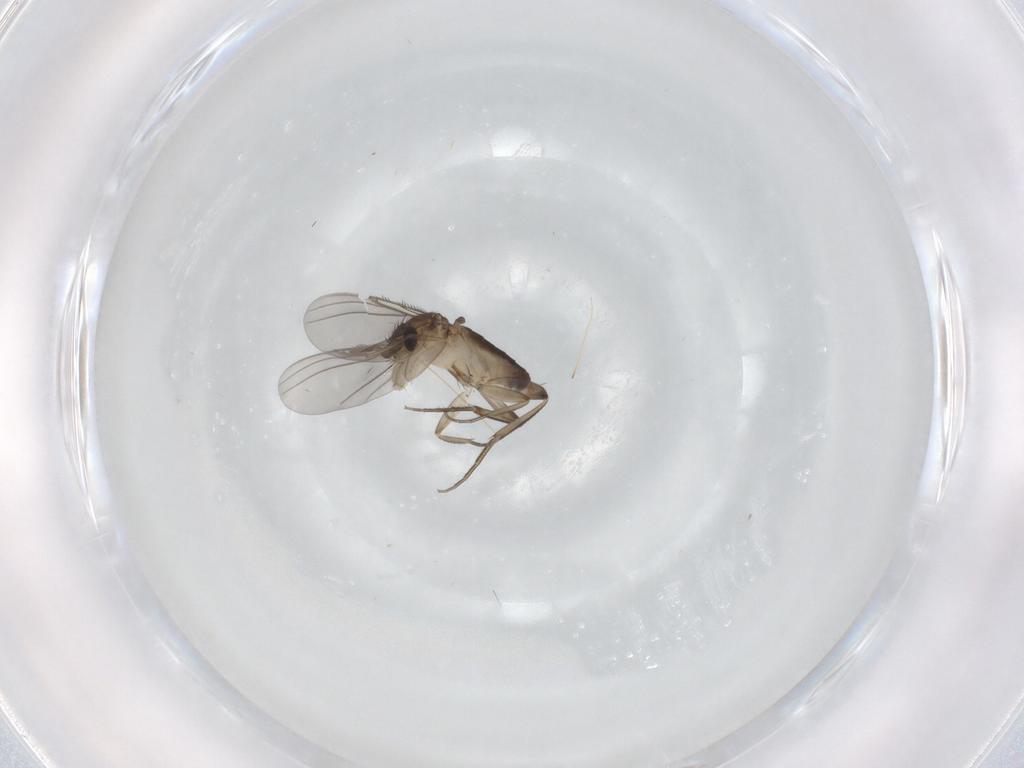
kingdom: Animalia
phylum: Arthropoda
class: Insecta
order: Diptera
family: Phoridae
